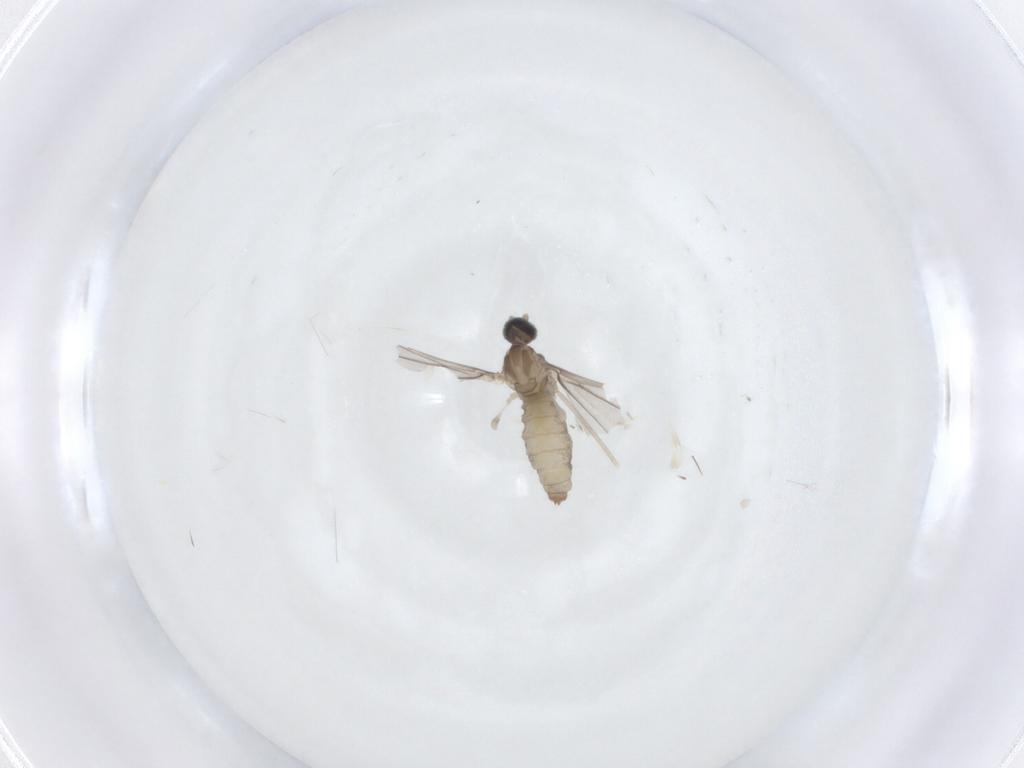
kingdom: Animalia
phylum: Arthropoda
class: Insecta
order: Diptera
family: Cecidomyiidae
